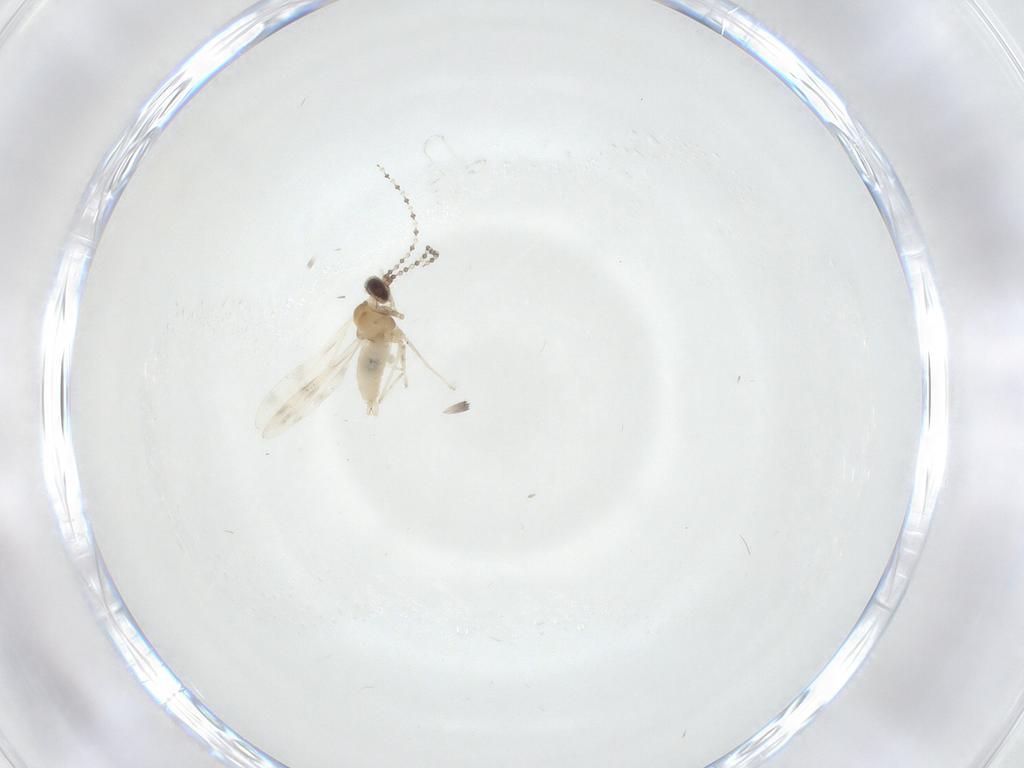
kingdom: Animalia
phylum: Arthropoda
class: Insecta
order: Diptera
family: Cecidomyiidae
